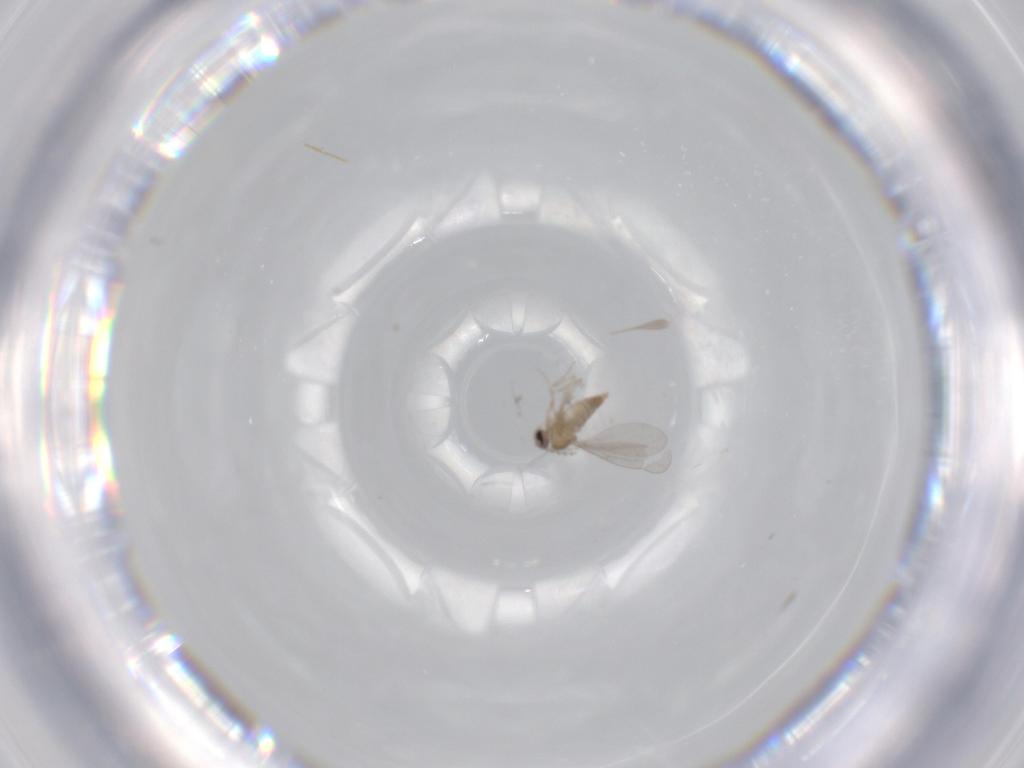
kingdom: Animalia
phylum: Arthropoda
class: Insecta
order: Diptera
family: Cecidomyiidae
